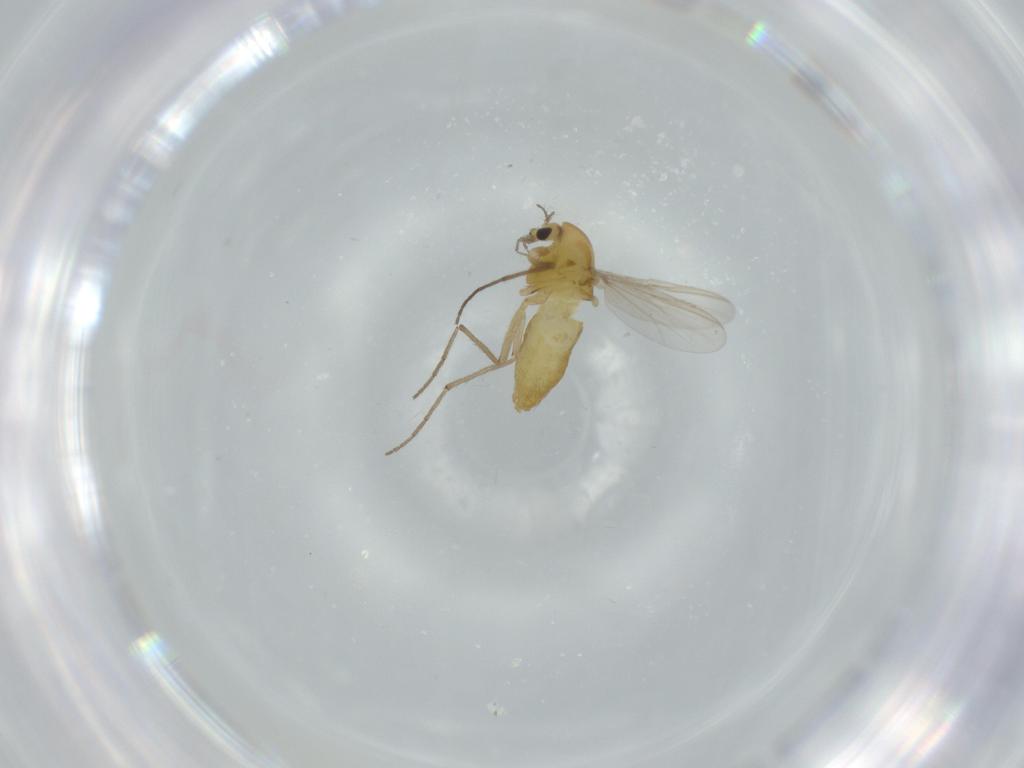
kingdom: Animalia
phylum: Arthropoda
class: Insecta
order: Diptera
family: Chironomidae
